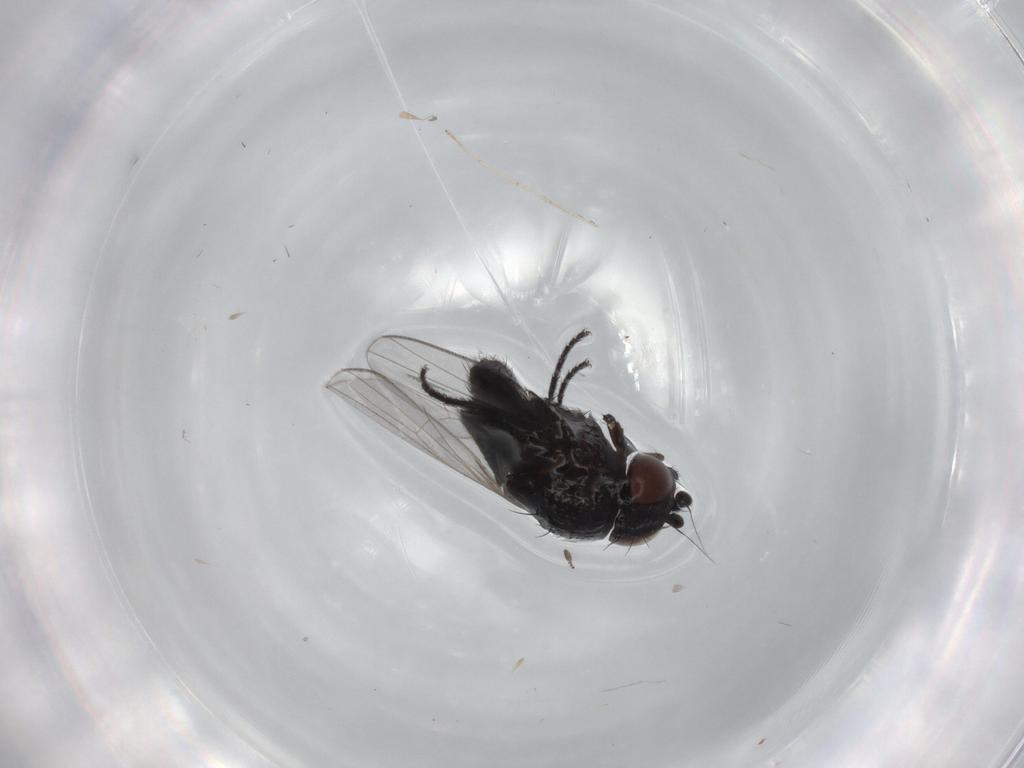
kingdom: Animalia
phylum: Arthropoda
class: Insecta
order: Diptera
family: Milichiidae
